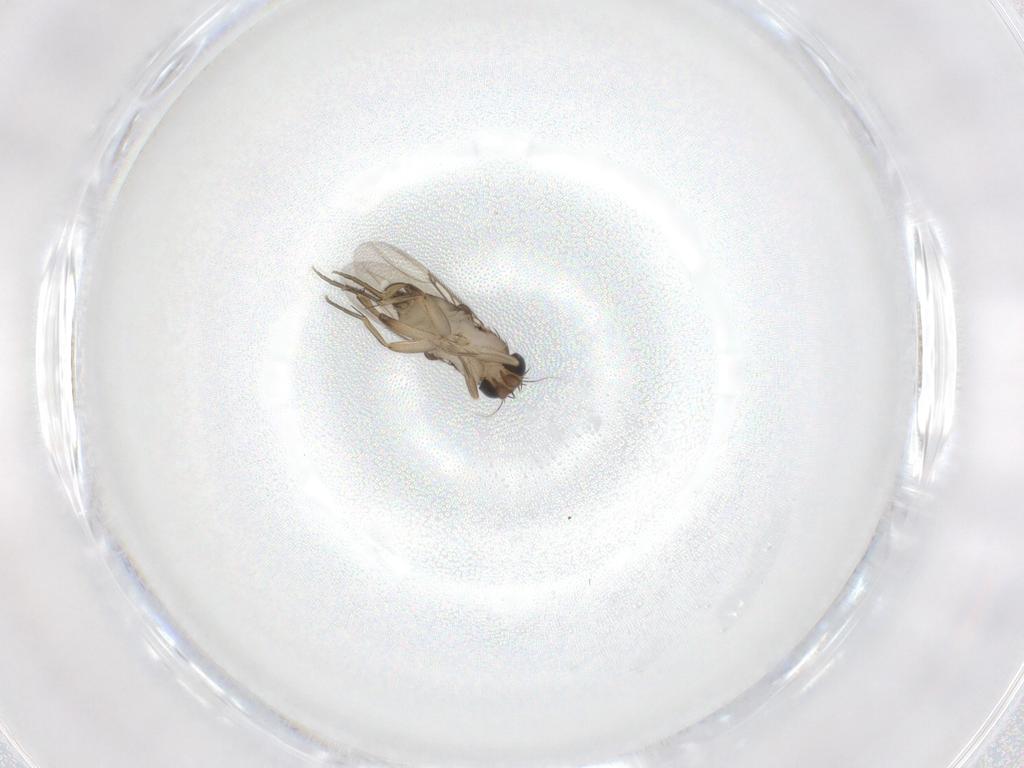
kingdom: Animalia
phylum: Arthropoda
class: Insecta
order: Diptera
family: Phoridae
